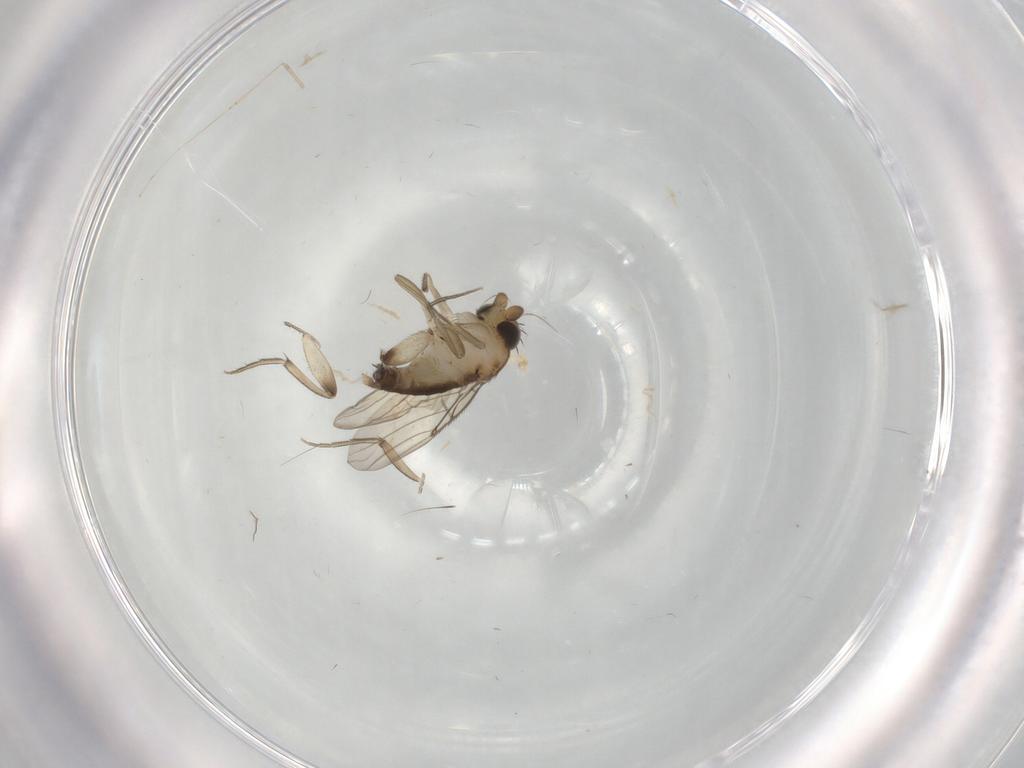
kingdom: Animalia
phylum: Arthropoda
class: Insecta
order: Diptera
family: Phoridae
